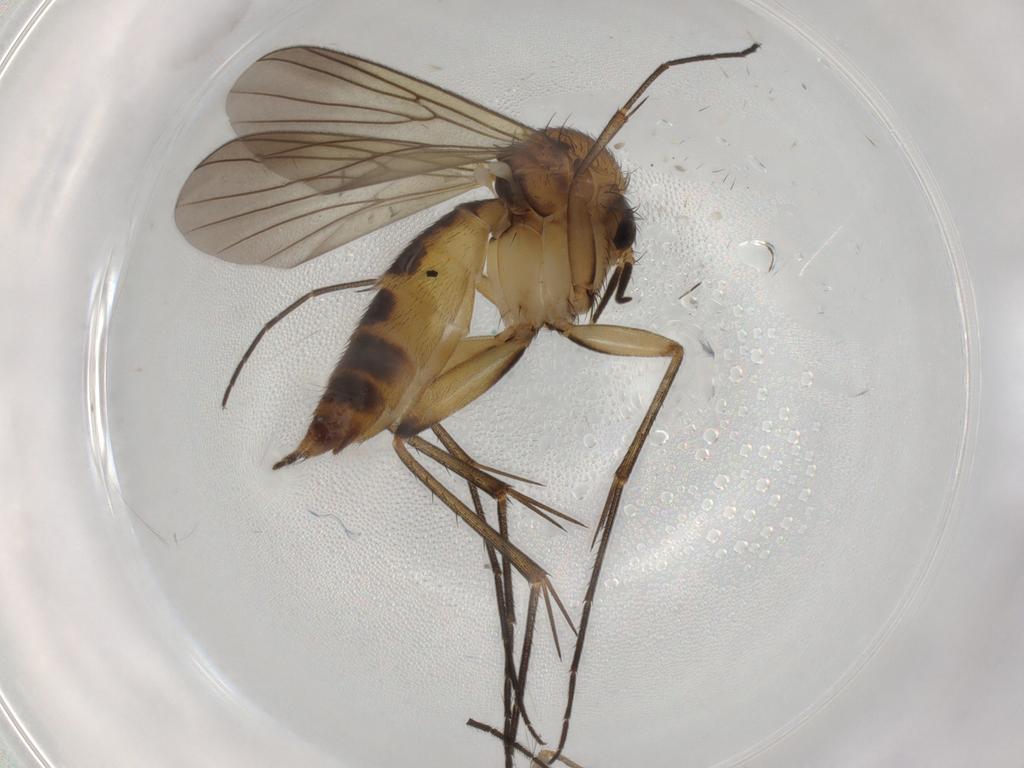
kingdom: Animalia
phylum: Arthropoda
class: Insecta
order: Diptera
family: Mycetophilidae
